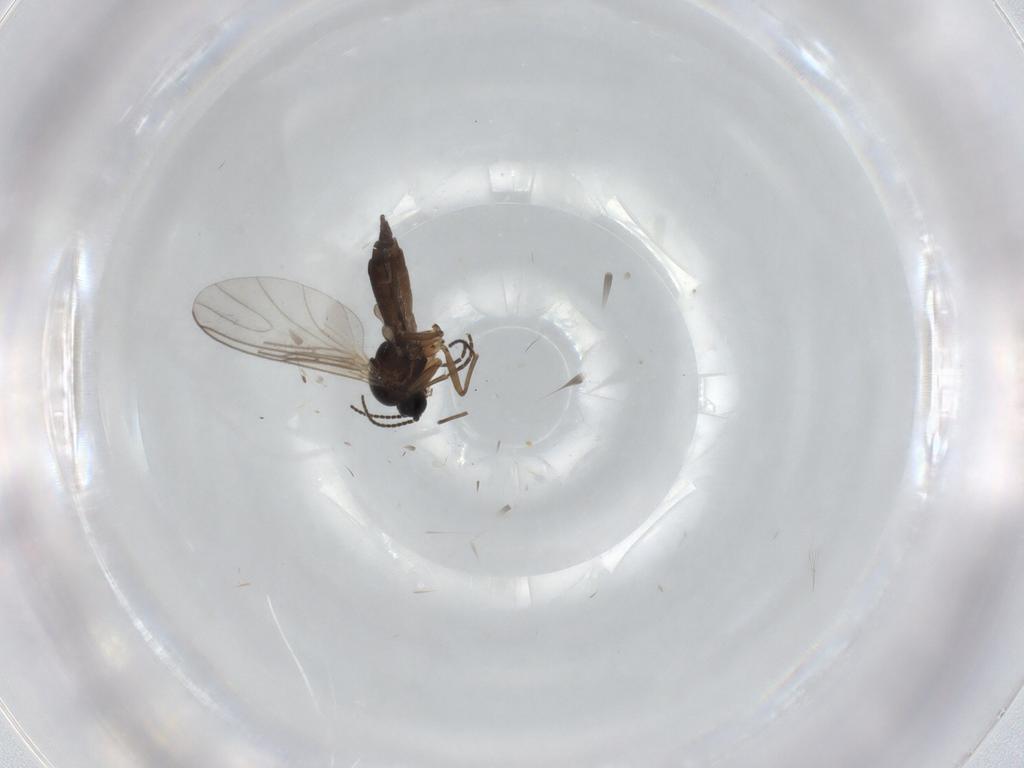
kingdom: Animalia
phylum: Arthropoda
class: Insecta
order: Diptera
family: Sciaridae
